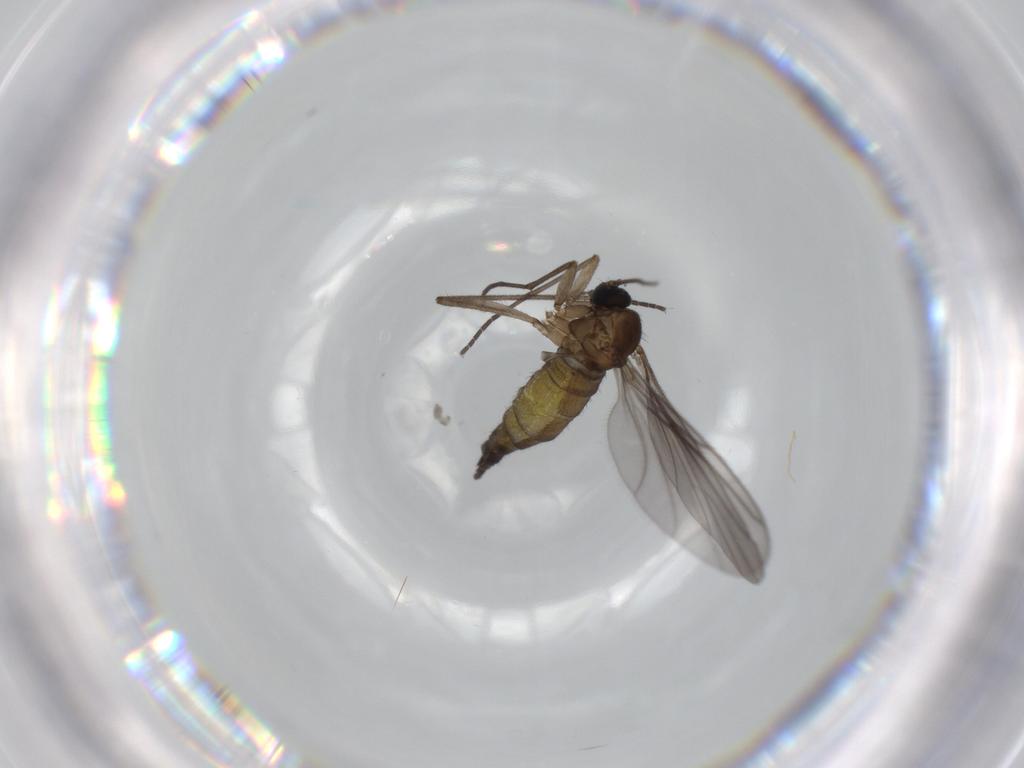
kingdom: Animalia
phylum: Arthropoda
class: Insecta
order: Diptera
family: Sciaridae
